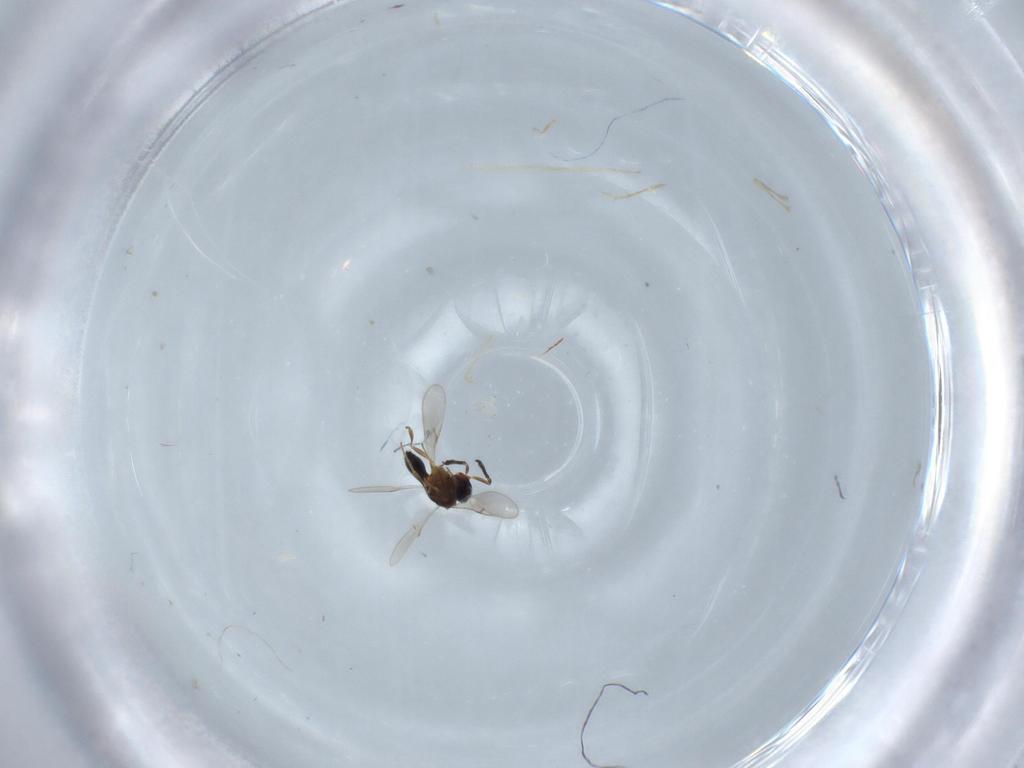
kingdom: Animalia
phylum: Arthropoda
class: Insecta
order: Hymenoptera
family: Scelionidae
